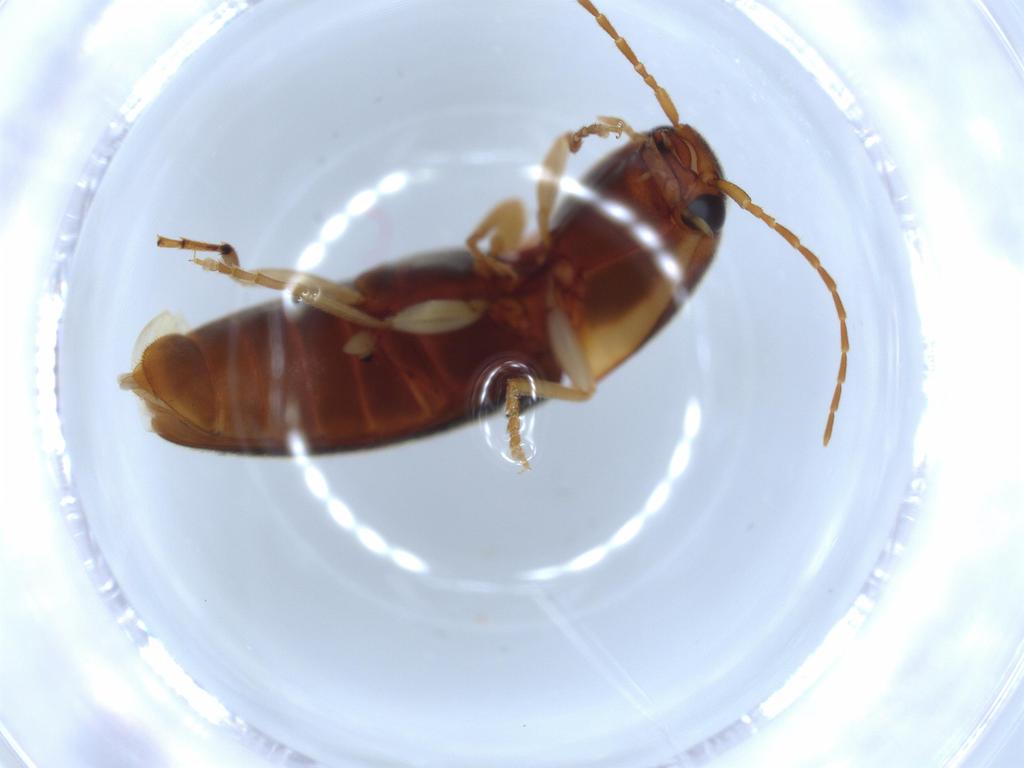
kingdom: Animalia
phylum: Arthropoda
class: Insecta
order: Coleoptera
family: Elateridae
